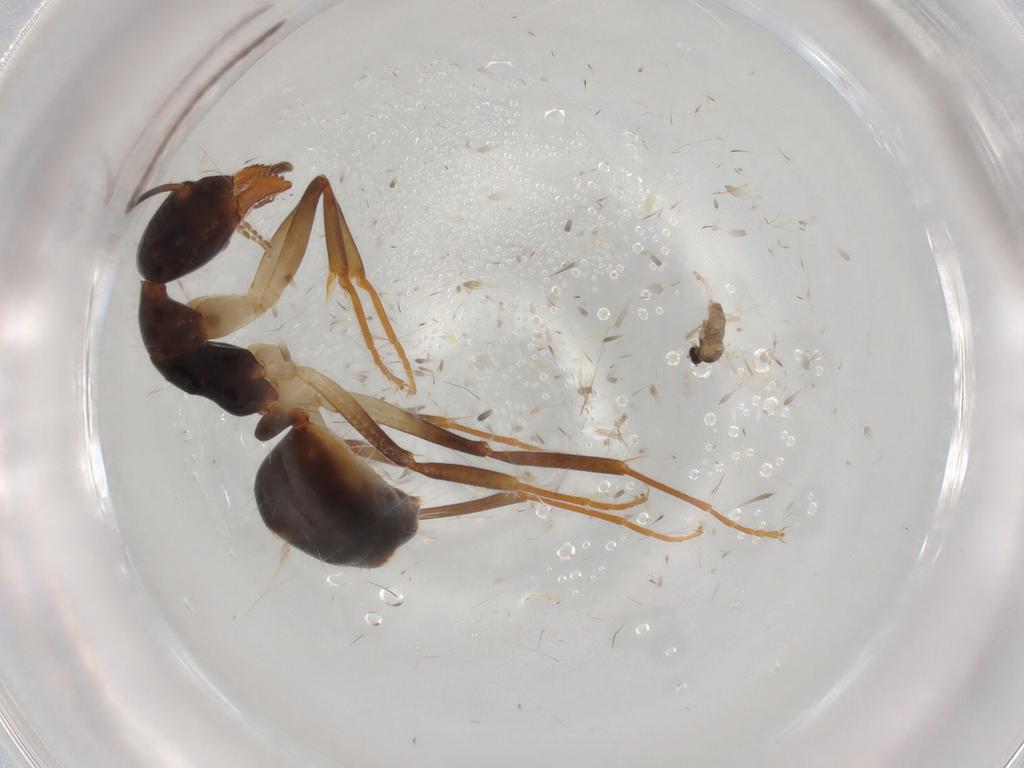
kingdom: Animalia
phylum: Arthropoda
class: Insecta
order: Hymenoptera
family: Formicidae
